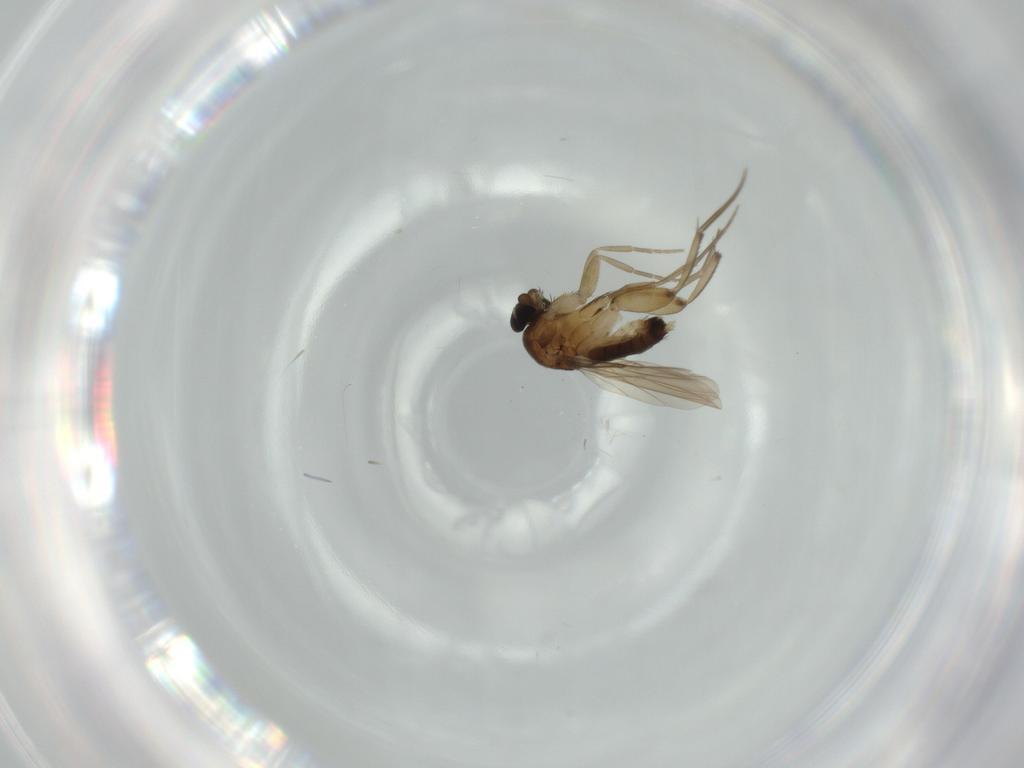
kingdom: Animalia
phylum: Arthropoda
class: Insecta
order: Diptera
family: Phoridae
